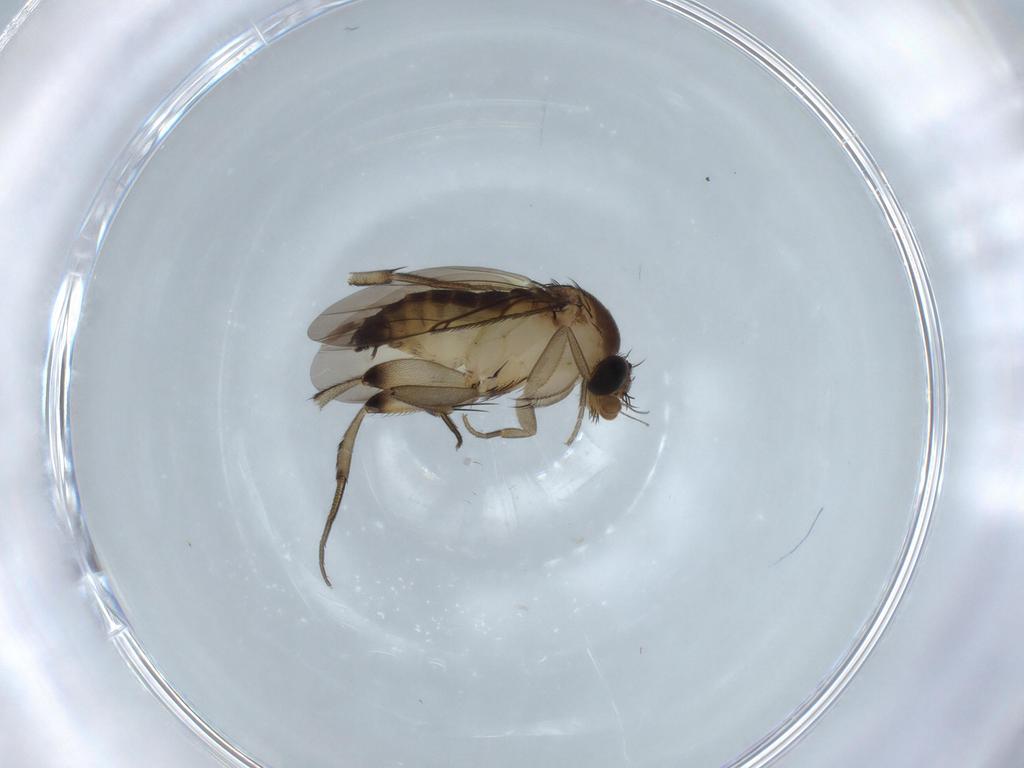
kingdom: Animalia
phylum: Arthropoda
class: Insecta
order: Diptera
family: Phoridae
